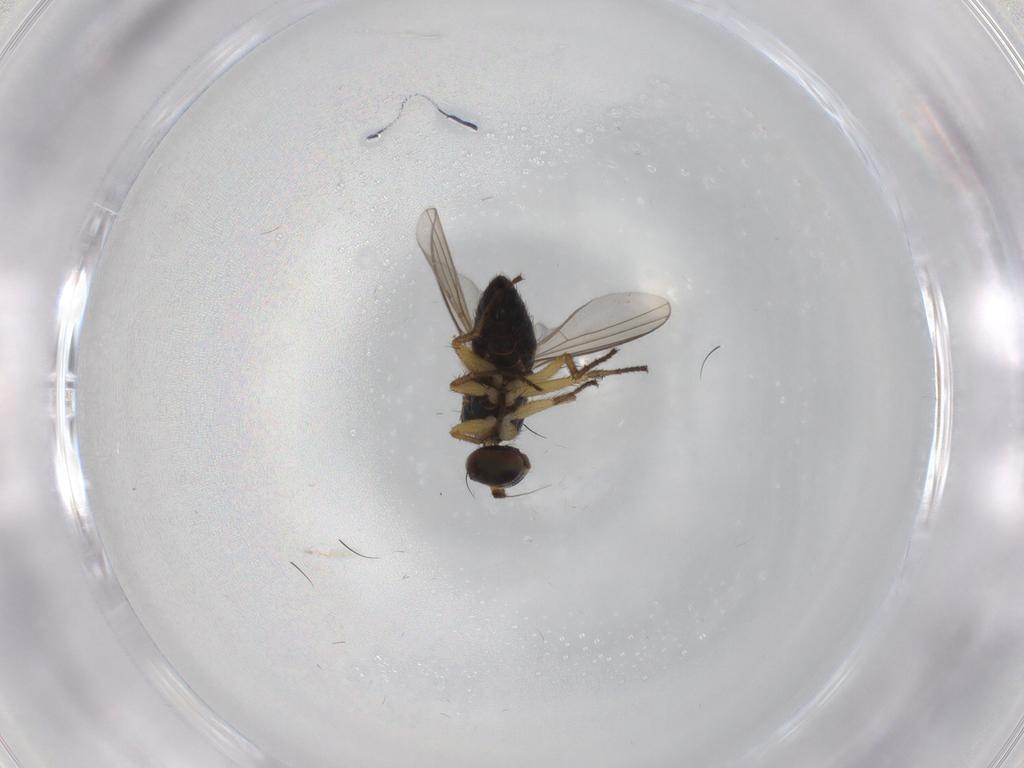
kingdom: Animalia
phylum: Arthropoda
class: Insecta
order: Diptera
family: Dolichopodidae
